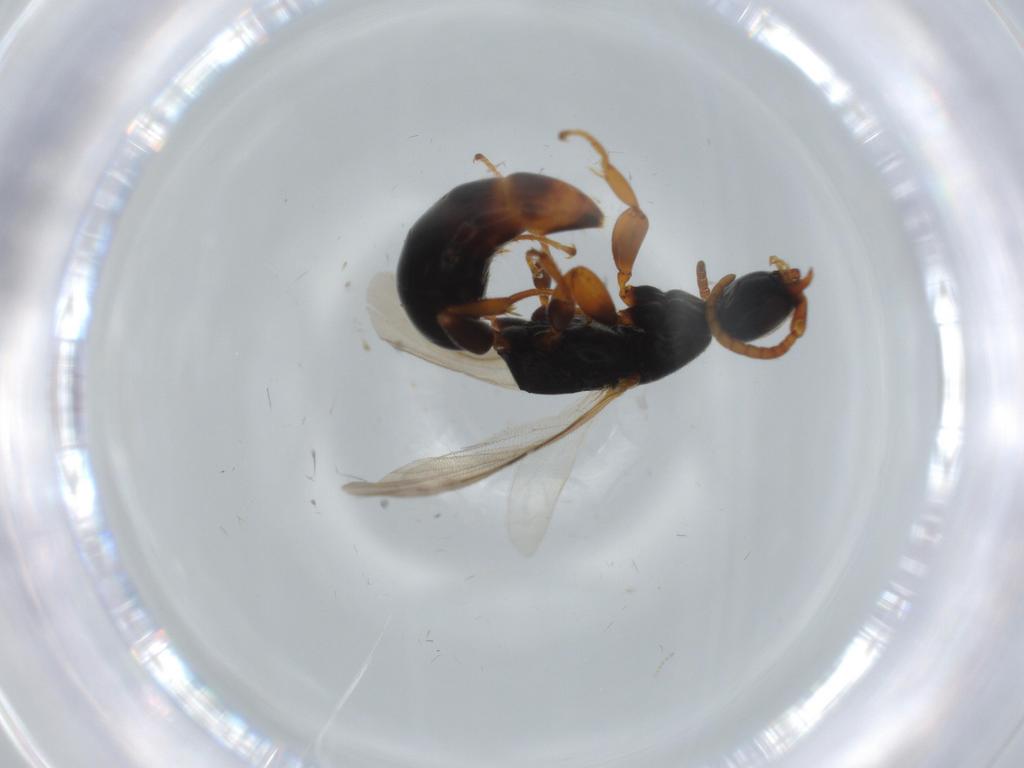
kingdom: Animalia
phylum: Arthropoda
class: Insecta
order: Hymenoptera
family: Bethylidae
